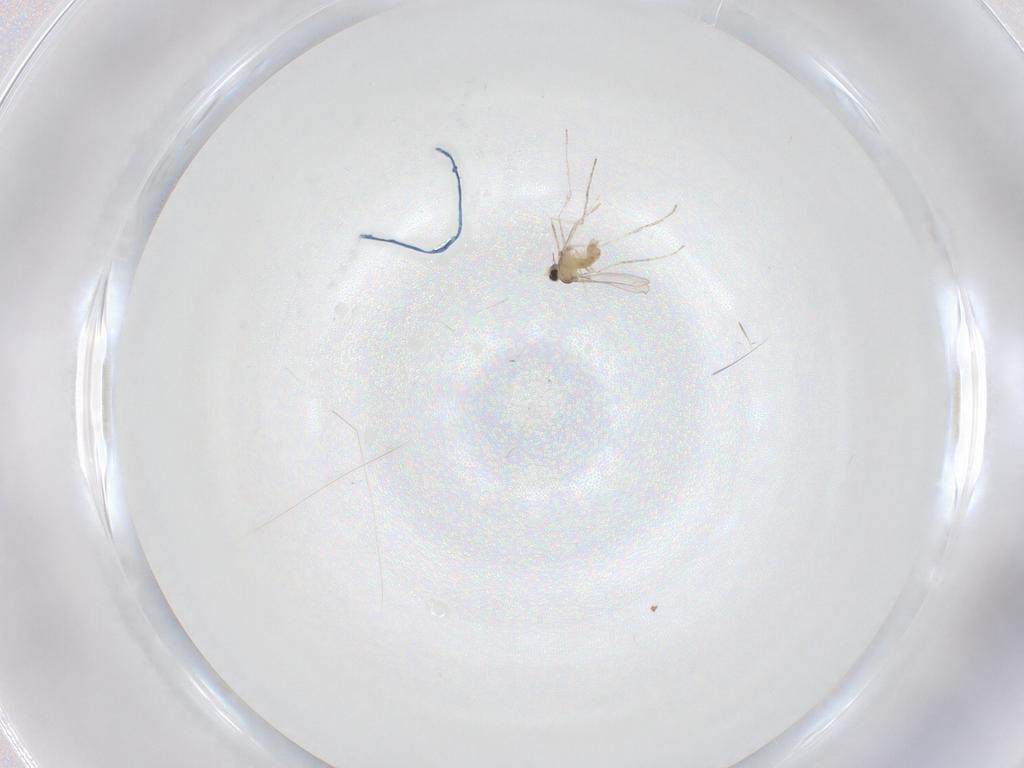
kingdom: Animalia
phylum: Arthropoda
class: Insecta
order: Diptera
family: Cecidomyiidae
